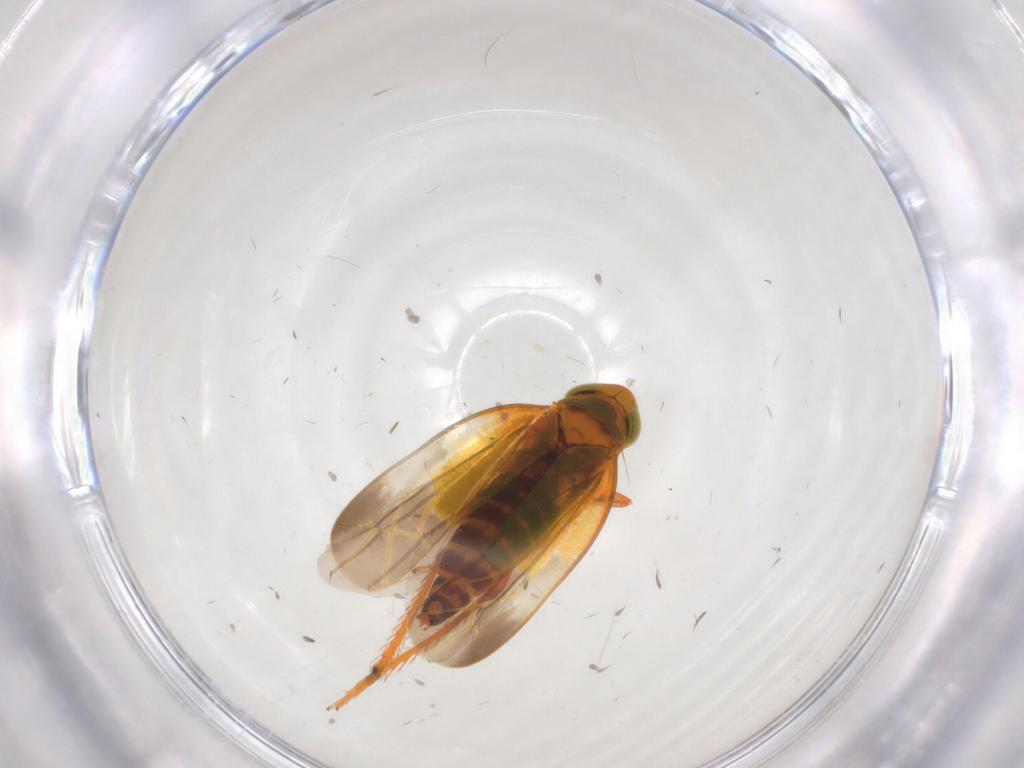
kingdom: Animalia
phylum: Arthropoda
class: Insecta
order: Hemiptera
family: Cicadellidae
